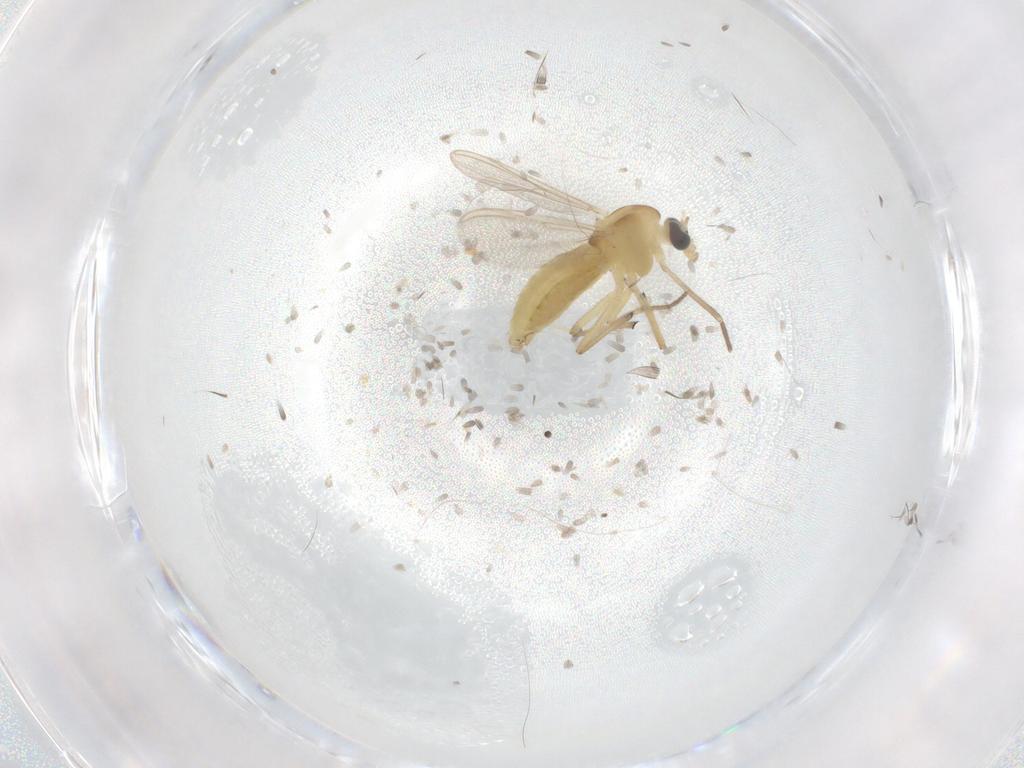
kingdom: Animalia
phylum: Arthropoda
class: Insecta
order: Diptera
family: Chironomidae
